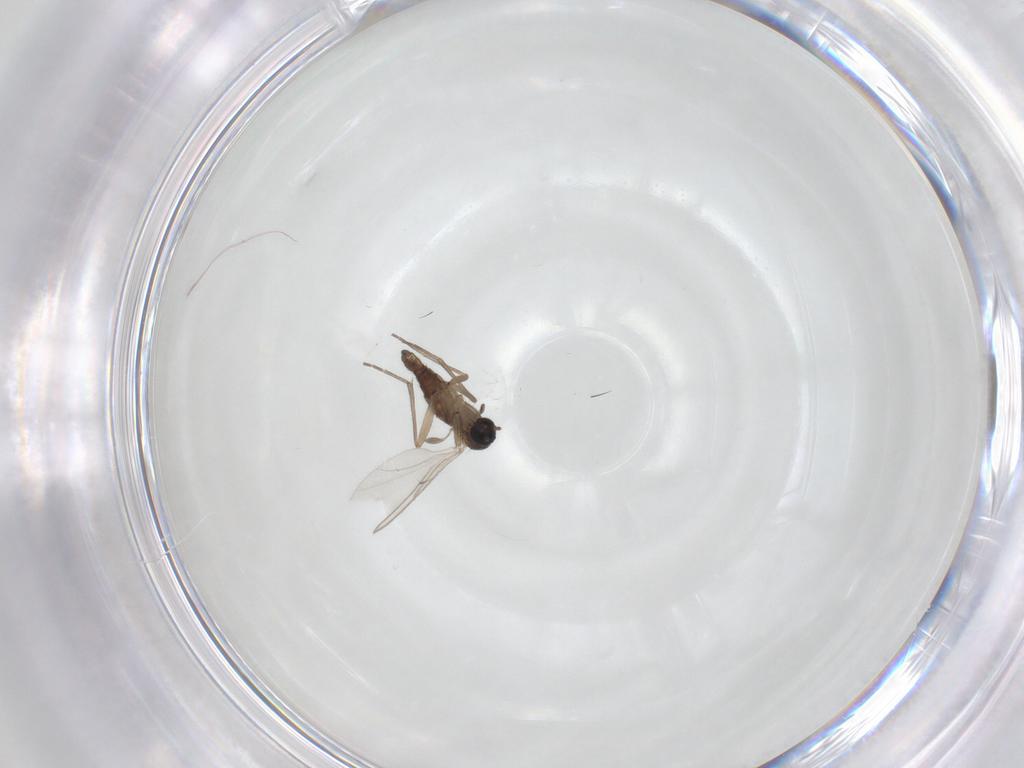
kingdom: Animalia
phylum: Arthropoda
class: Insecta
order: Diptera
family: Sciaridae
